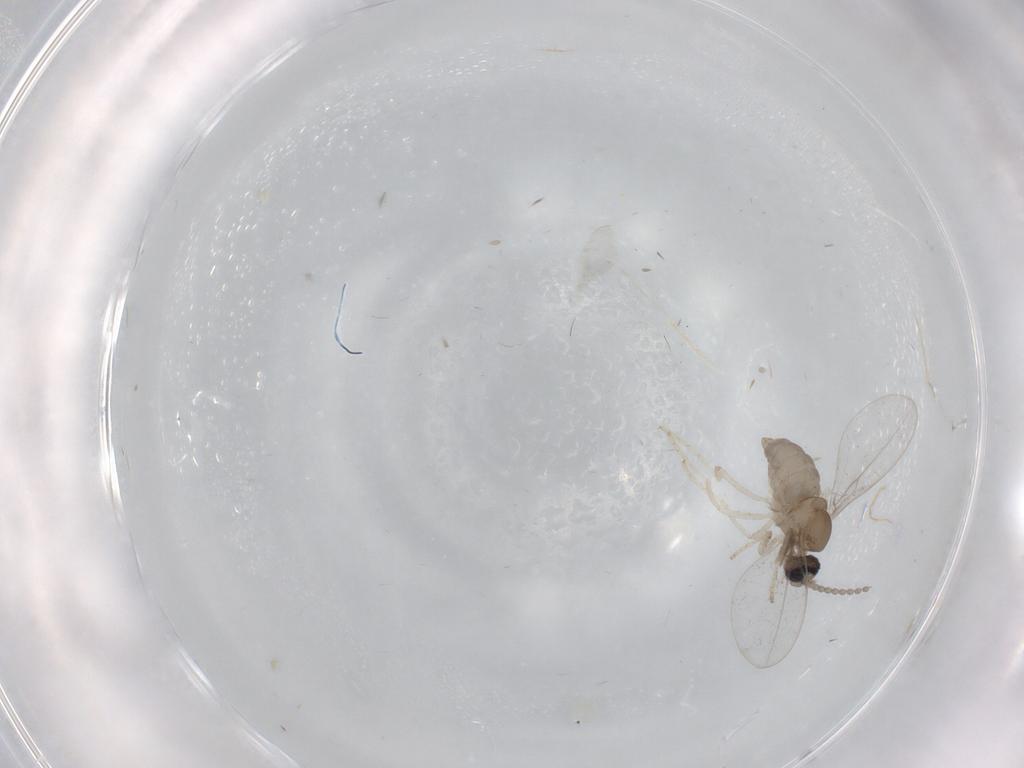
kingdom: Animalia
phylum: Arthropoda
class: Insecta
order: Diptera
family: Cecidomyiidae
